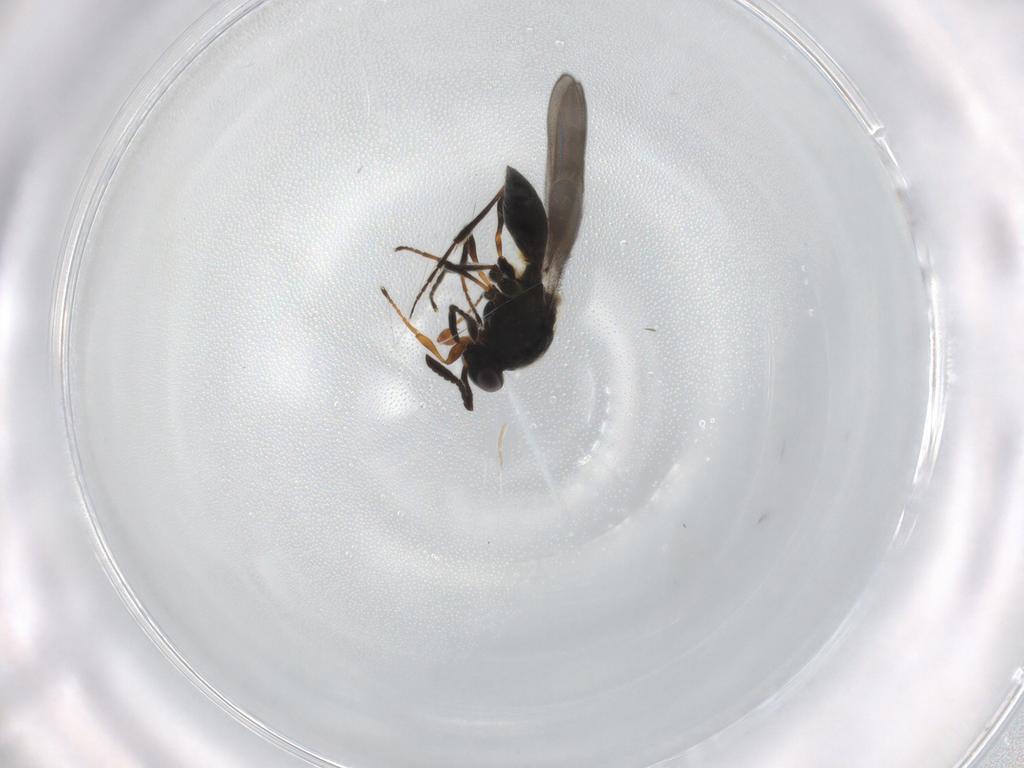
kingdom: Animalia
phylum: Arthropoda
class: Insecta
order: Hymenoptera
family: Platygastridae
